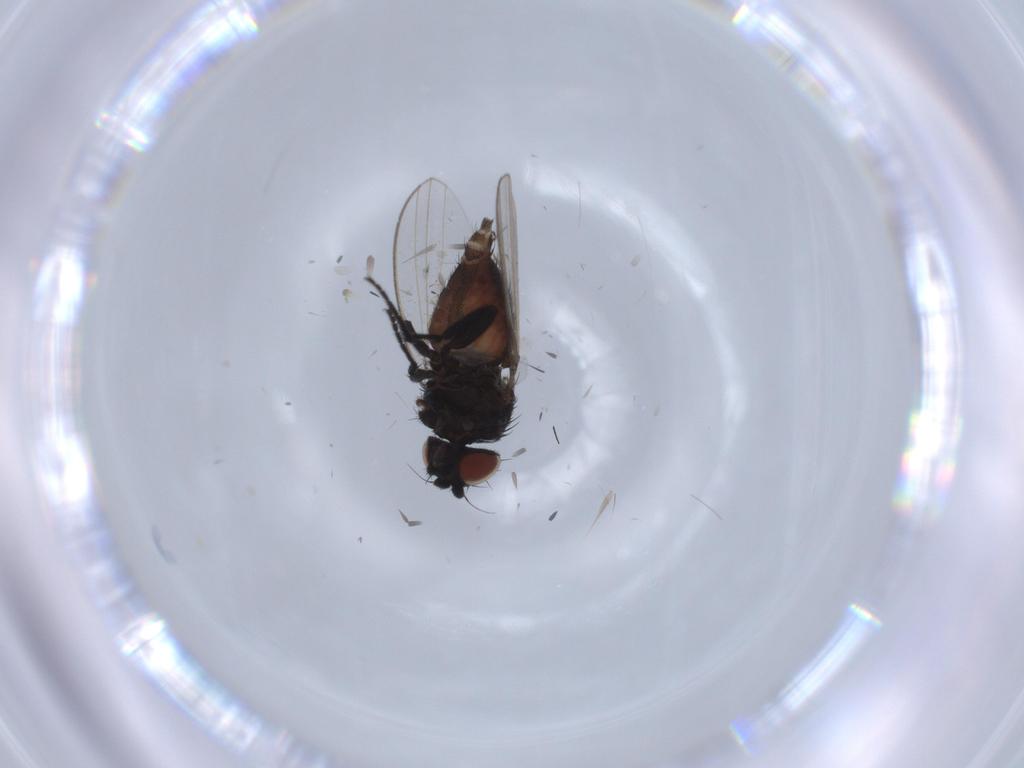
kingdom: Animalia
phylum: Arthropoda
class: Insecta
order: Diptera
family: Milichiidae
